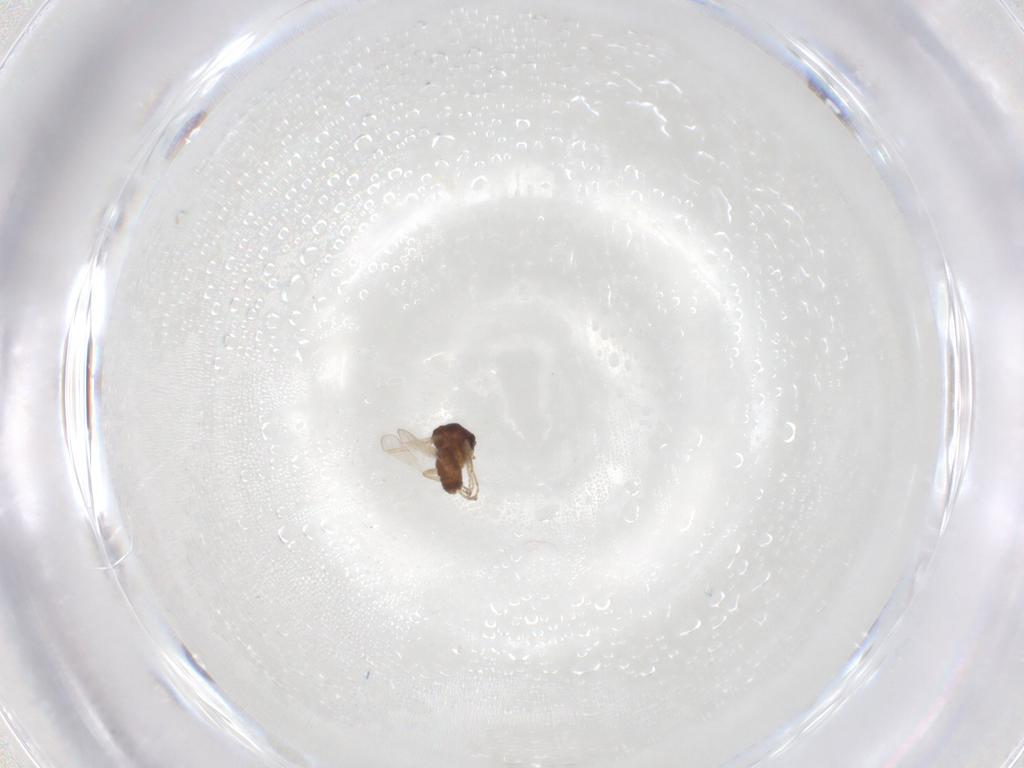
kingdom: Animalia
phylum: Arthropoda
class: Insecta
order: Diptera
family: Ceratopogonidae
